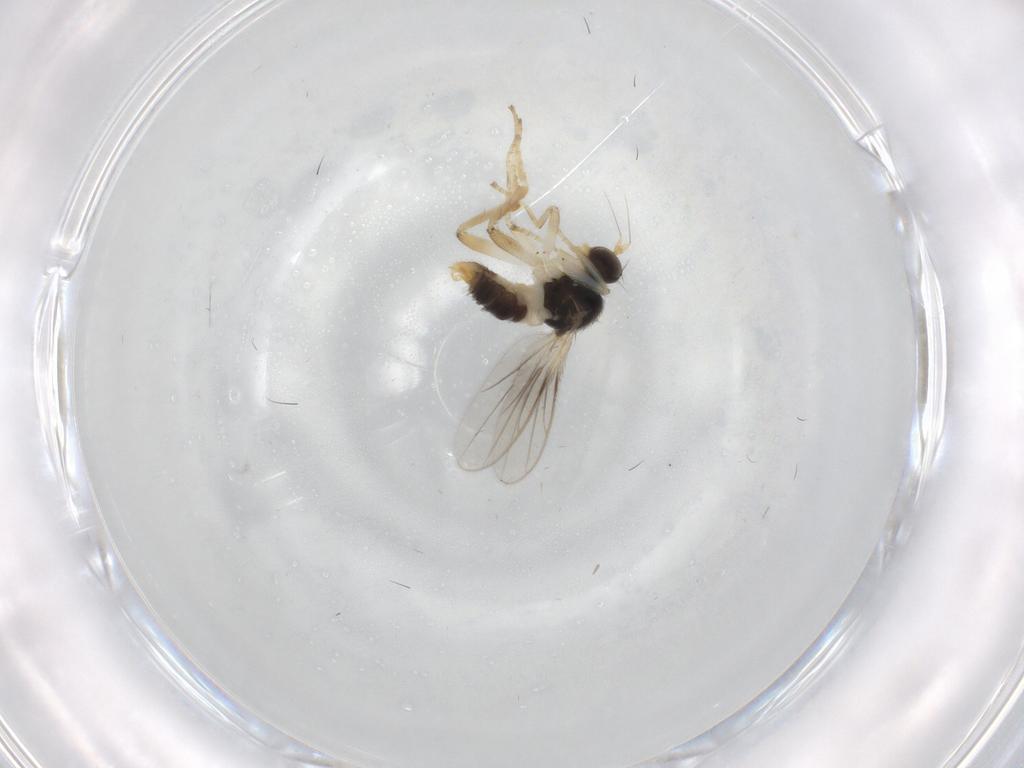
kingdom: Animalia
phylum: Arthropoda
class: Insecta
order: Diptera
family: Hybotidae
